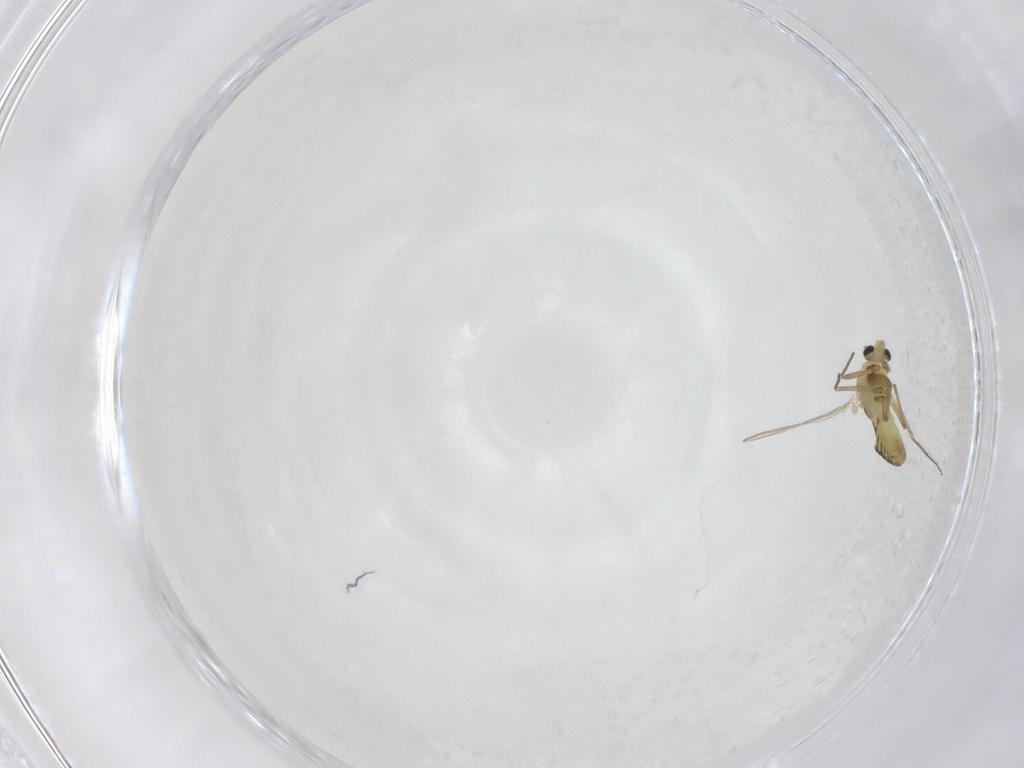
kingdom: Animalia
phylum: Arthropoda
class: Insecta
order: Diptera
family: Chironomidae
